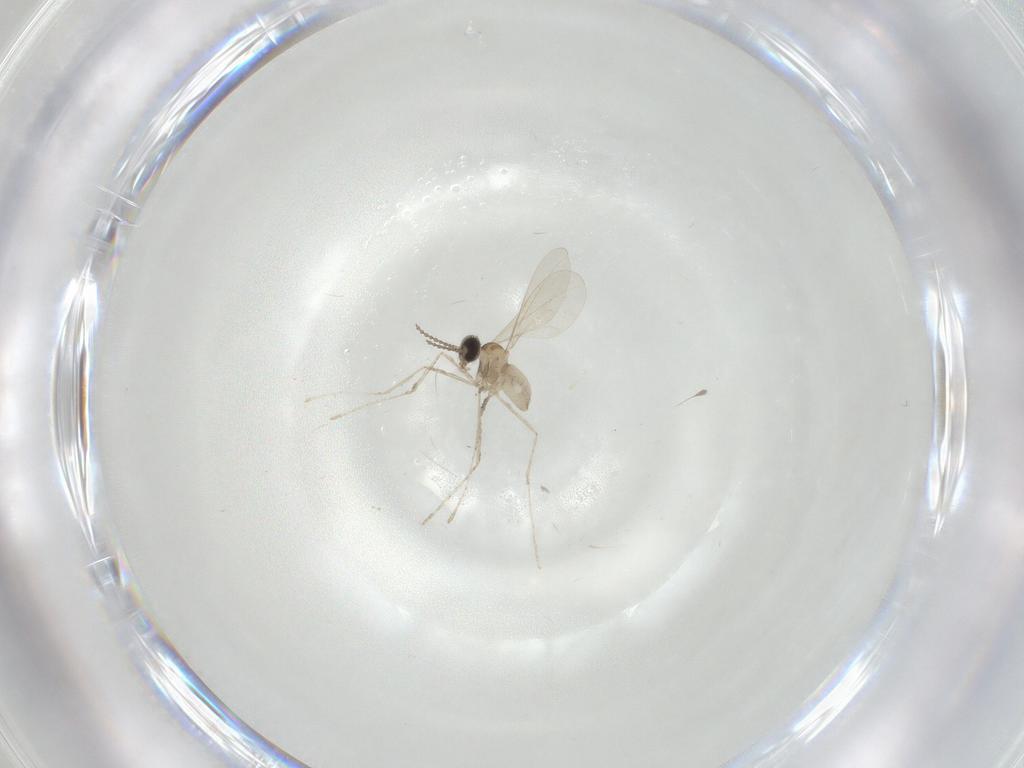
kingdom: Animalia
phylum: Arthropoda
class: Insecta
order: Diptera
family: Cecidomyiidae
